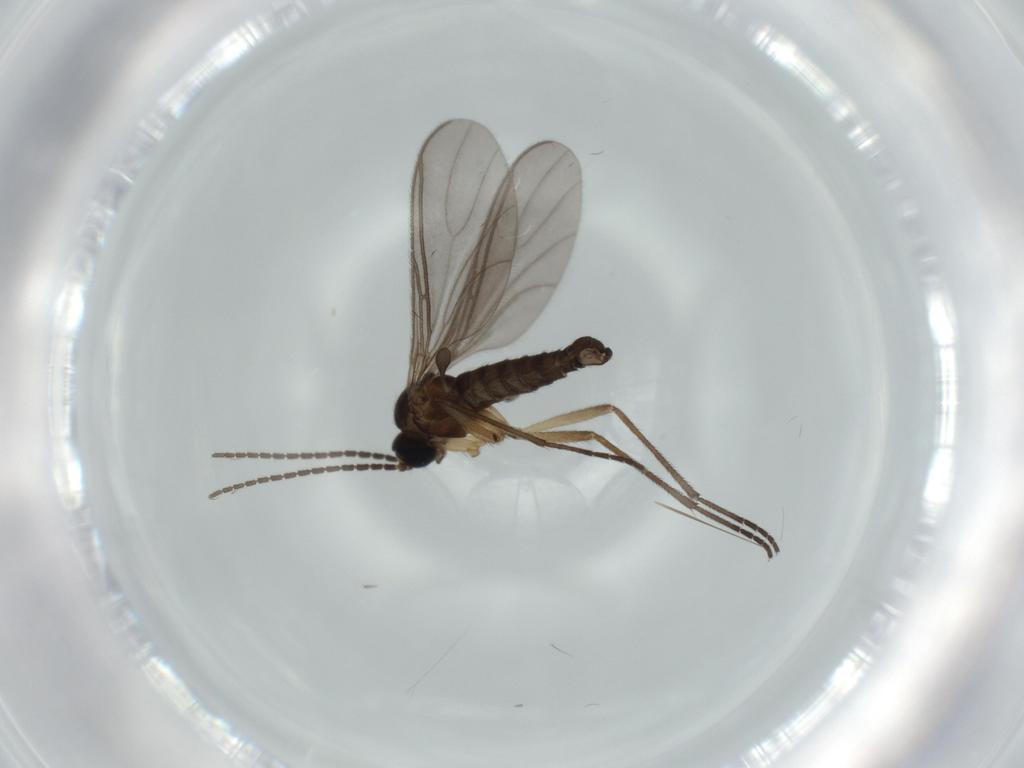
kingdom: Animalia
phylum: Arthropoda
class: Insecta
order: Diptera
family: Sciaridae
